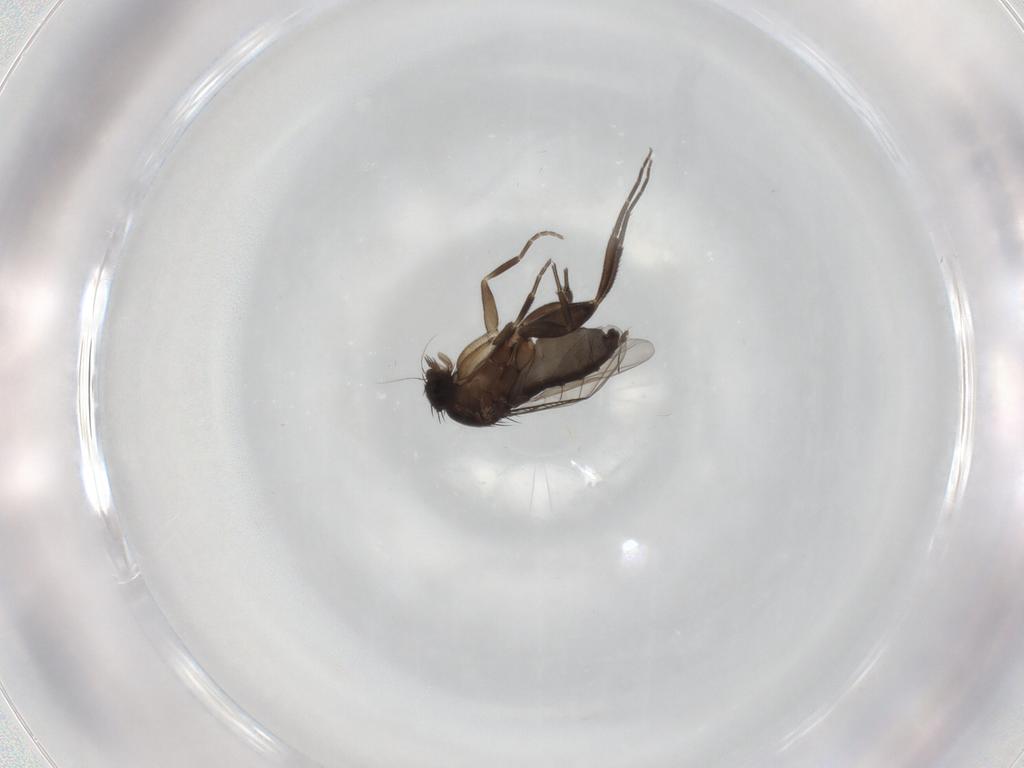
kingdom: Animalia
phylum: Arthropoda
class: Insecta
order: Diptera
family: Phoridae
